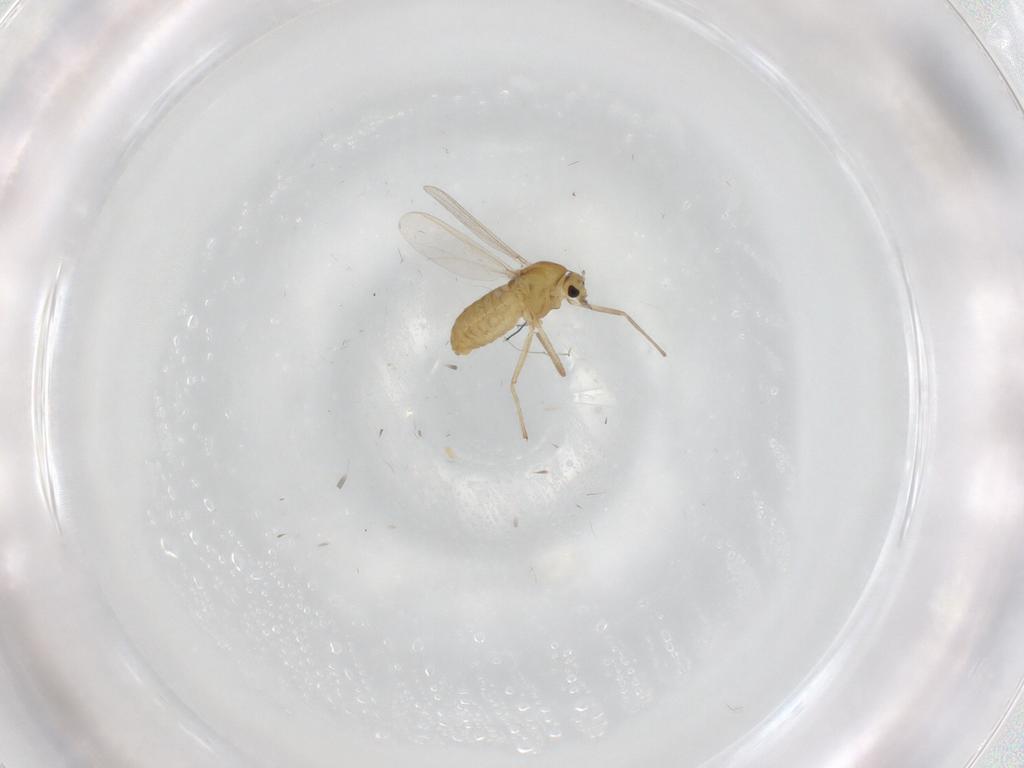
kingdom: Animalia
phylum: Arthropoda
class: Insecta
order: Diptera
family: Chironomidae
